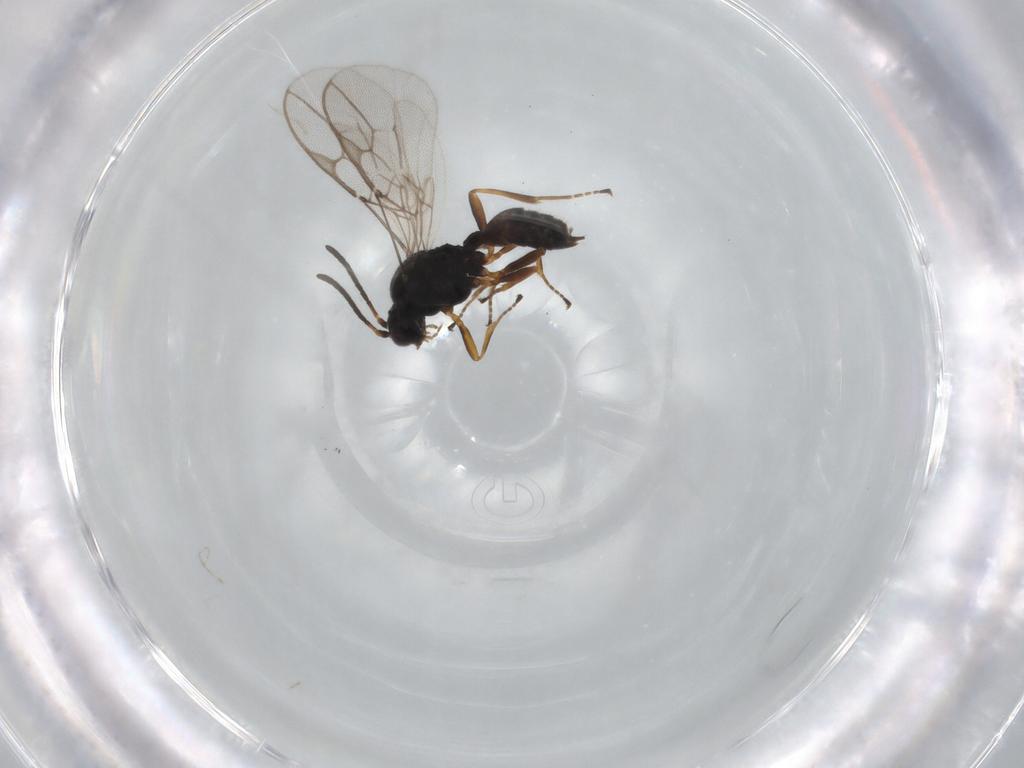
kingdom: Animalia
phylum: Arthropoda
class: Insecta
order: Hymenoptera
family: Braconidae
